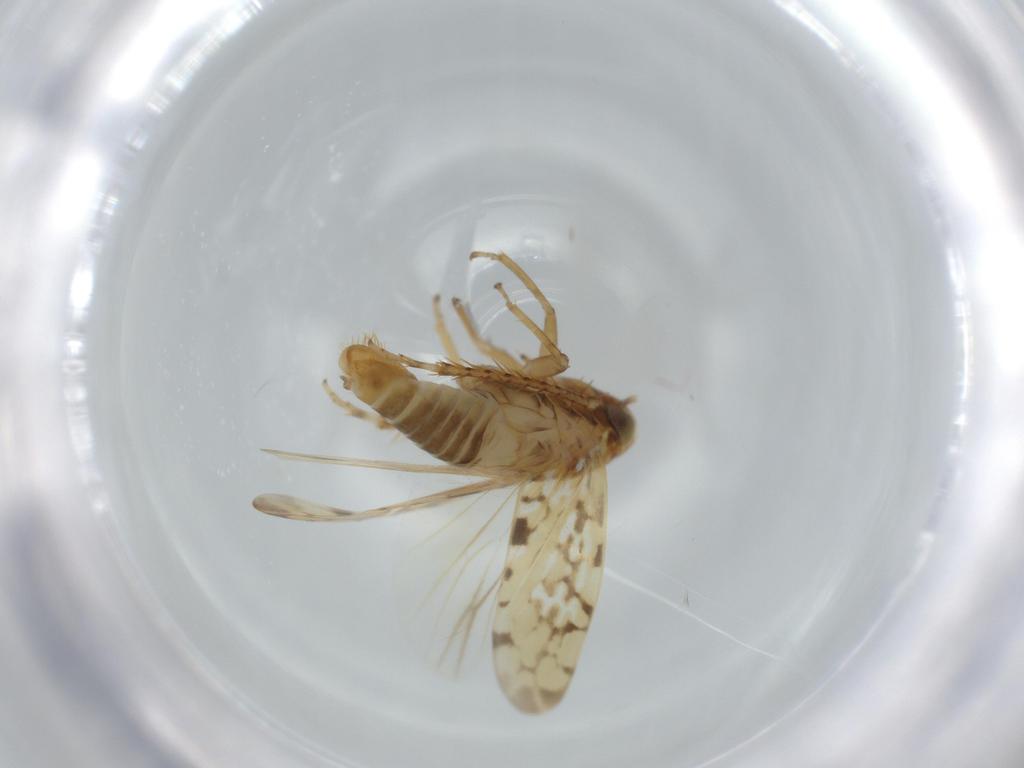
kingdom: Animalia
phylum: Arthropoda
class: Insecta
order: Hemiptera
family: Cicadellidae
